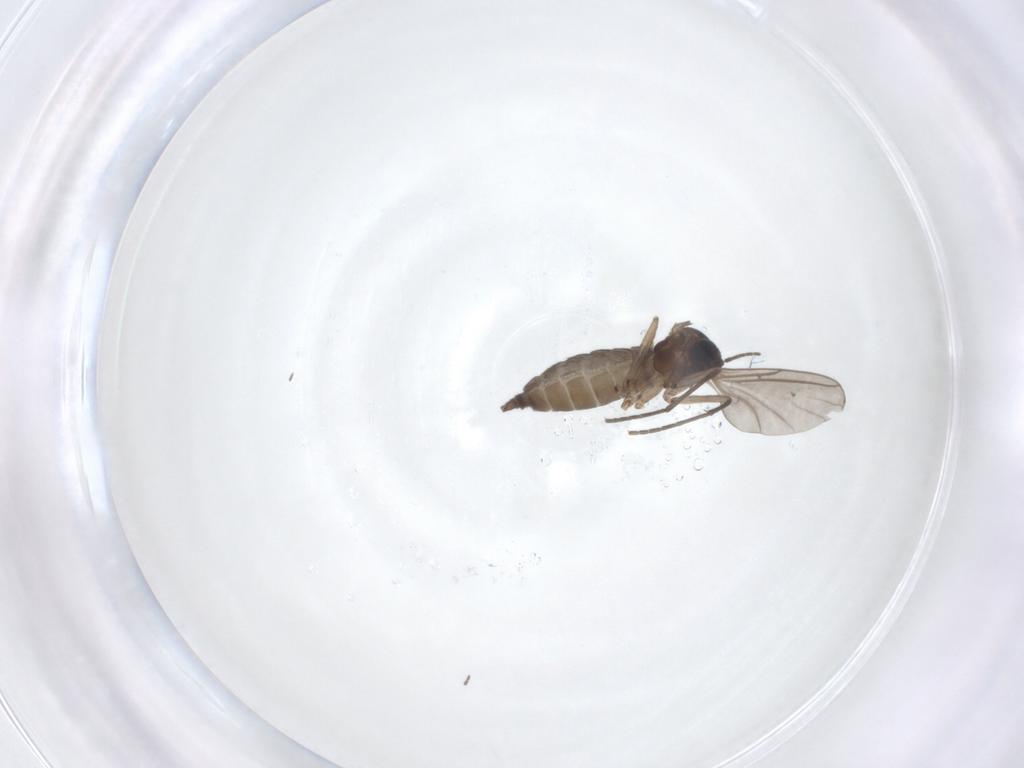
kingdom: Animalia
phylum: Arthropoda
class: Insecta
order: Diptera
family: Sciaridae
